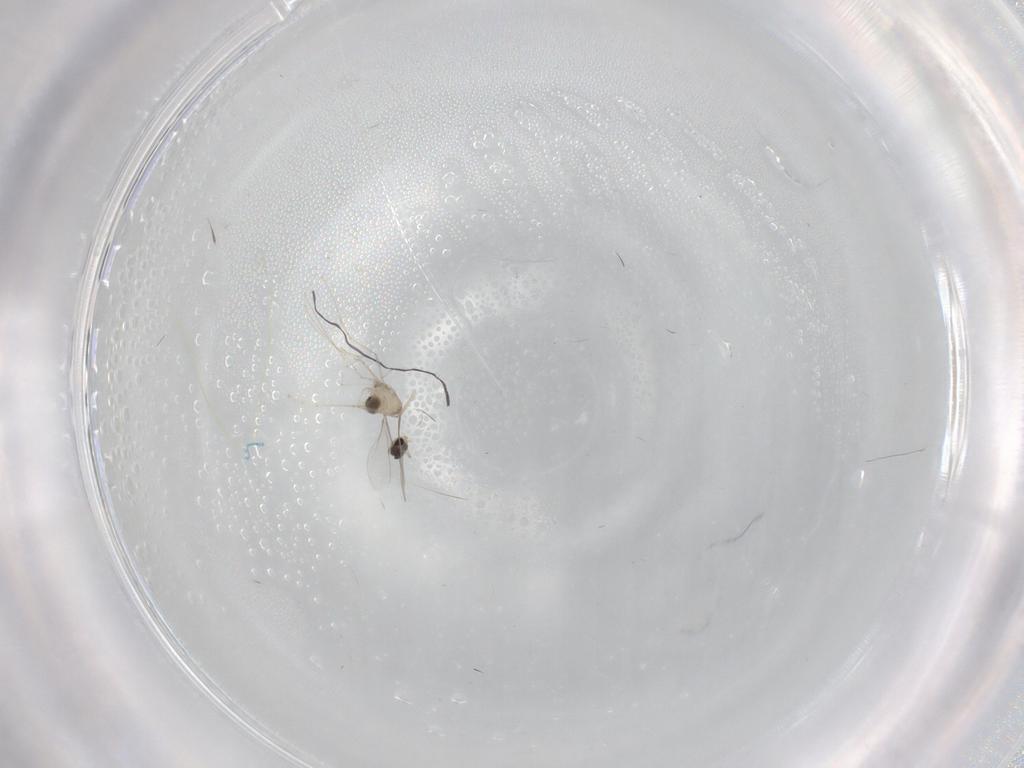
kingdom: Animalia
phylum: Arthropoda
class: Insecta
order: Diptera
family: Cecidomyiidae
